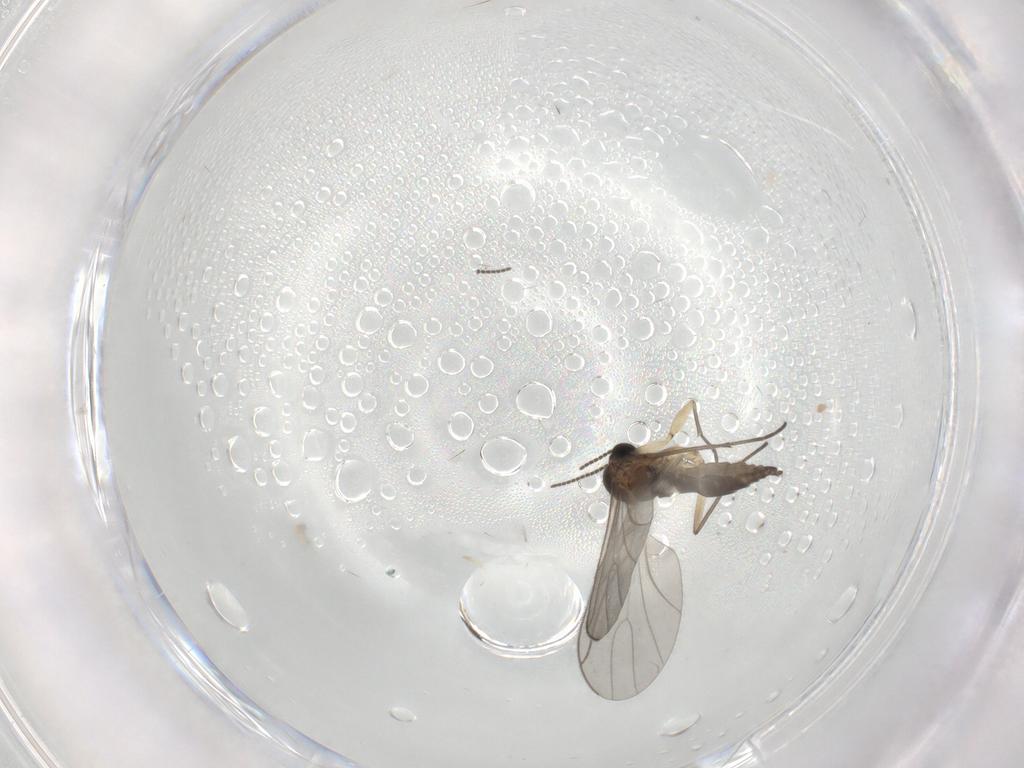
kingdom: Animalia
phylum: Arthropoda
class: Insecta
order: Diptera
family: Sciaridae
